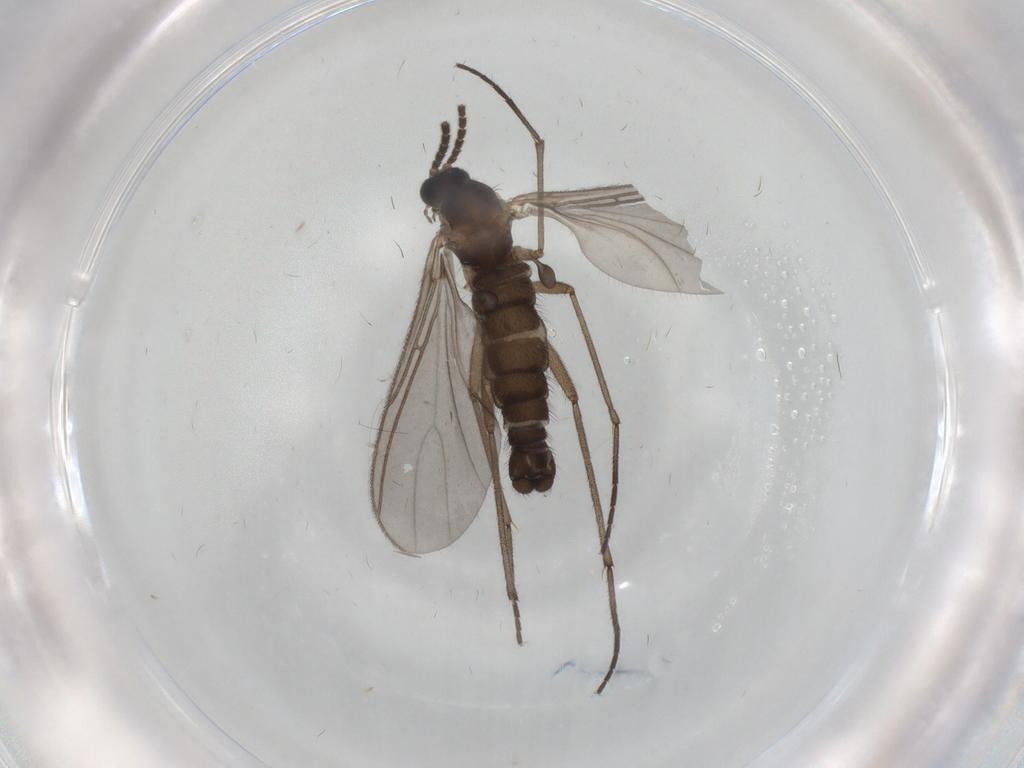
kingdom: Animalia
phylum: Arthropoda
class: Insecta
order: Diptera
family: Sciaridae
